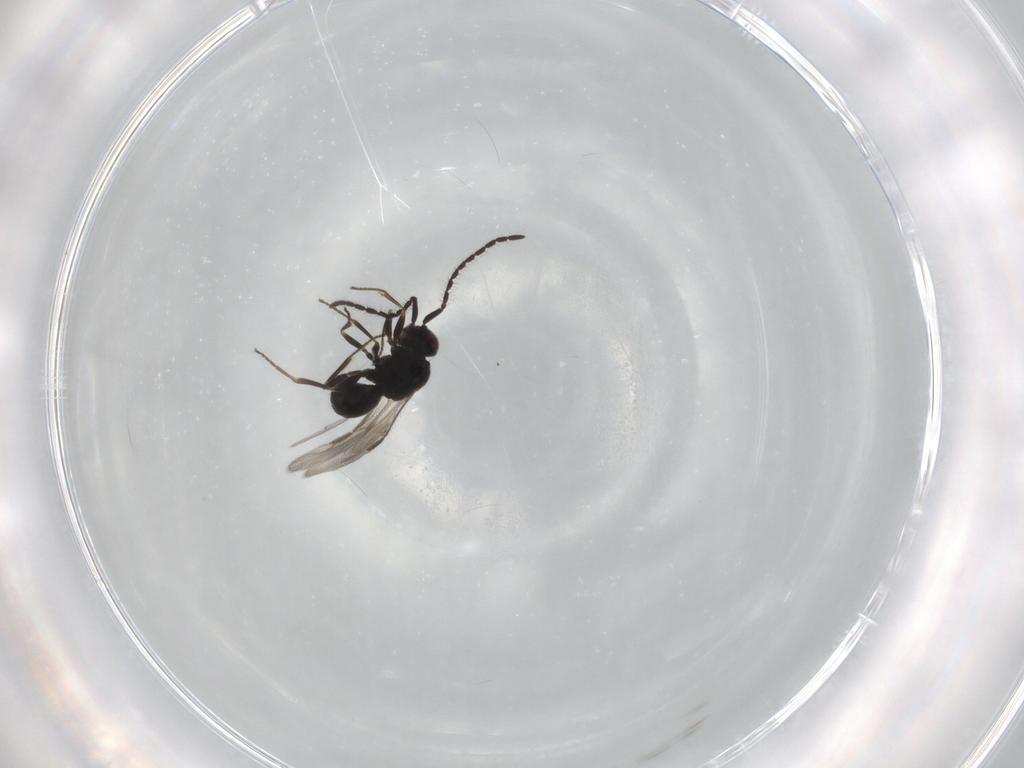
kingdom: Animalia
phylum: Arthropoda
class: Insecta
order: Hymenoptera
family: Megaspilidae
